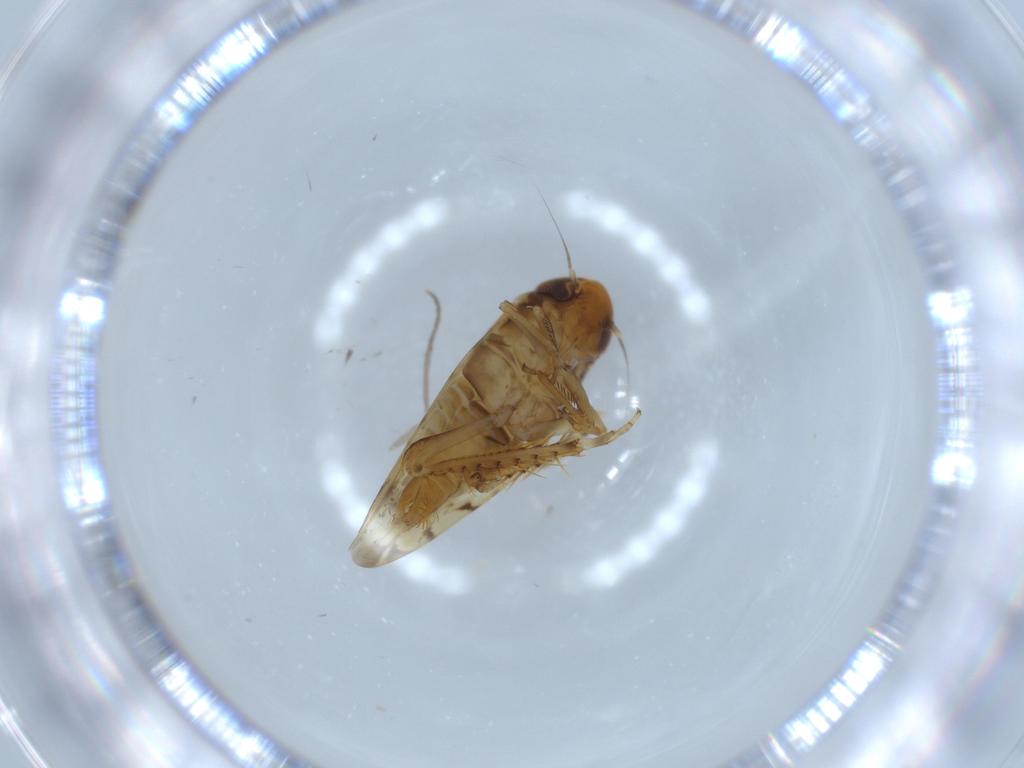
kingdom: Animalia
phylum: Arthropoda
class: Insecta
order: Hemiptera
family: Cicadellidae
